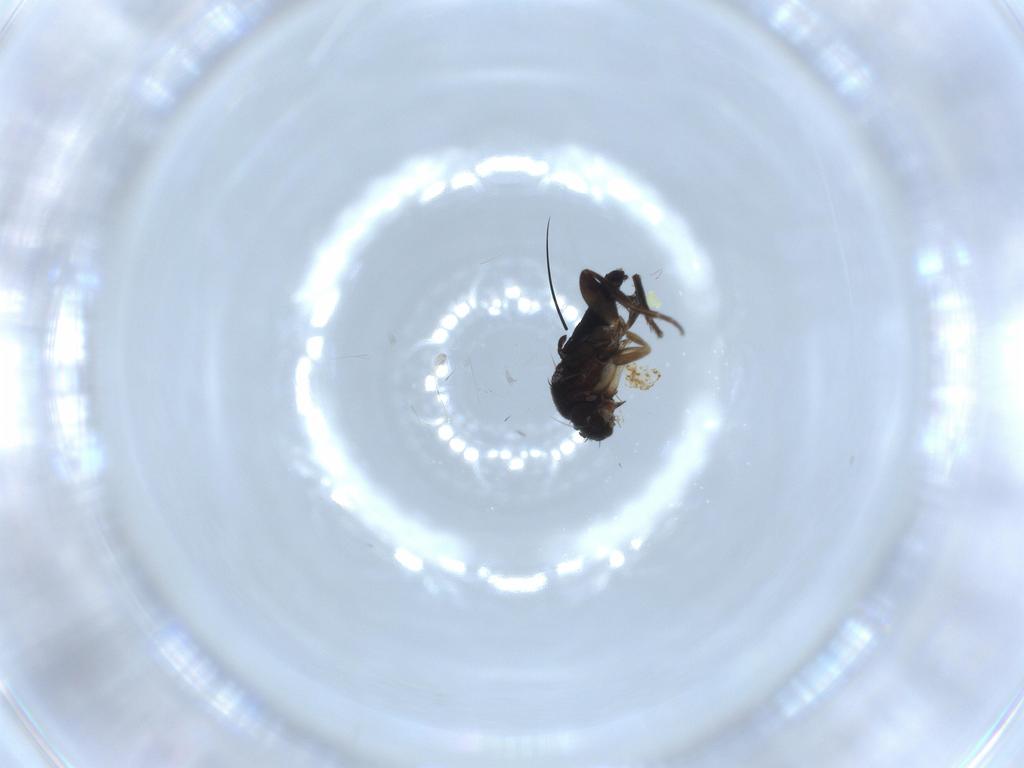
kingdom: Animalia
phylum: Arthropoda
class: Insecta
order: Diptera
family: Phoridae
